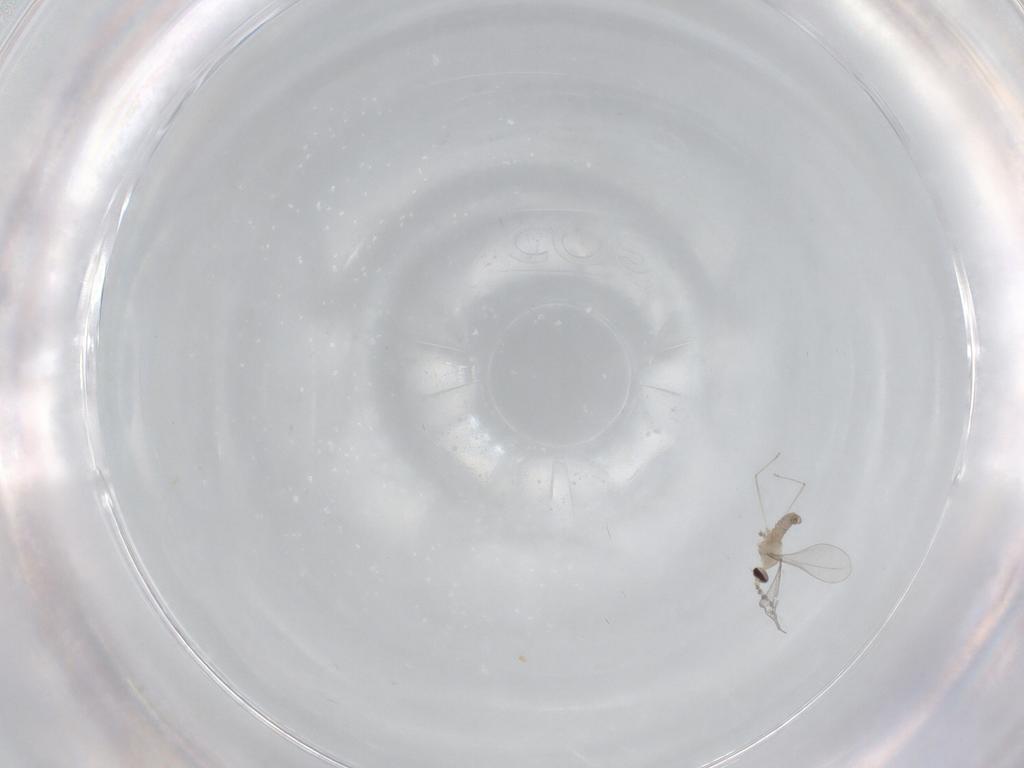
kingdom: Animalia
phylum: Arthropoda
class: Insecta
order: Diptera
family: Cecidomyiidae
